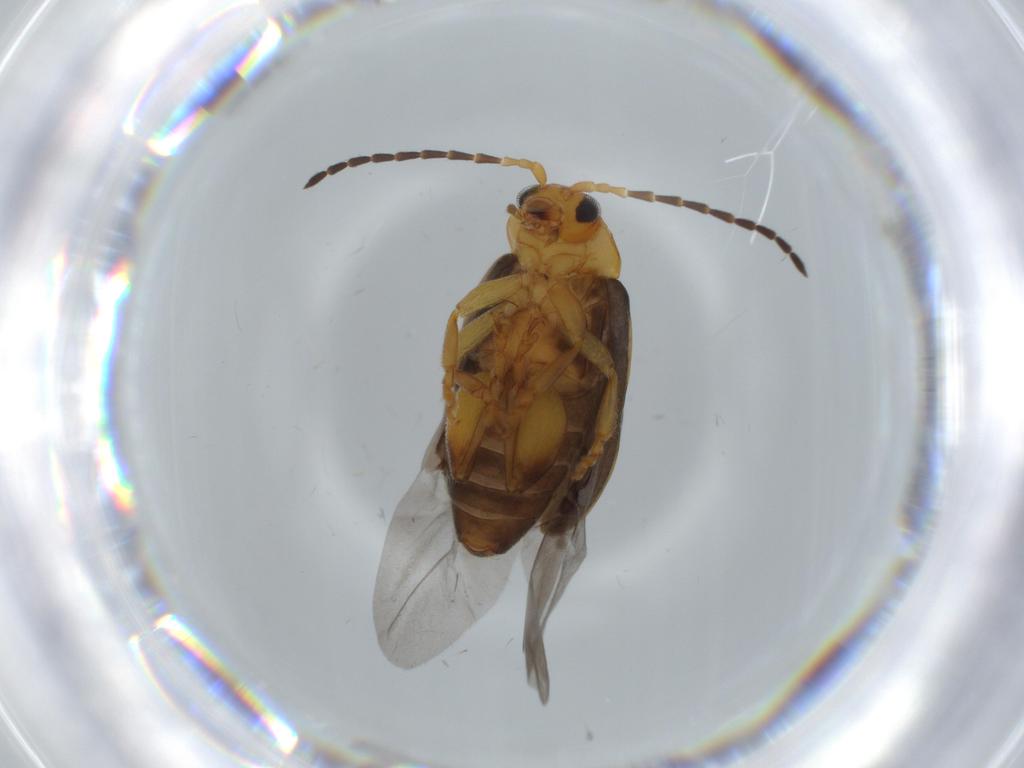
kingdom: Animalia
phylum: Arthropoda
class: Insecta
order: Coleoptera
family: Chrysomelidae
